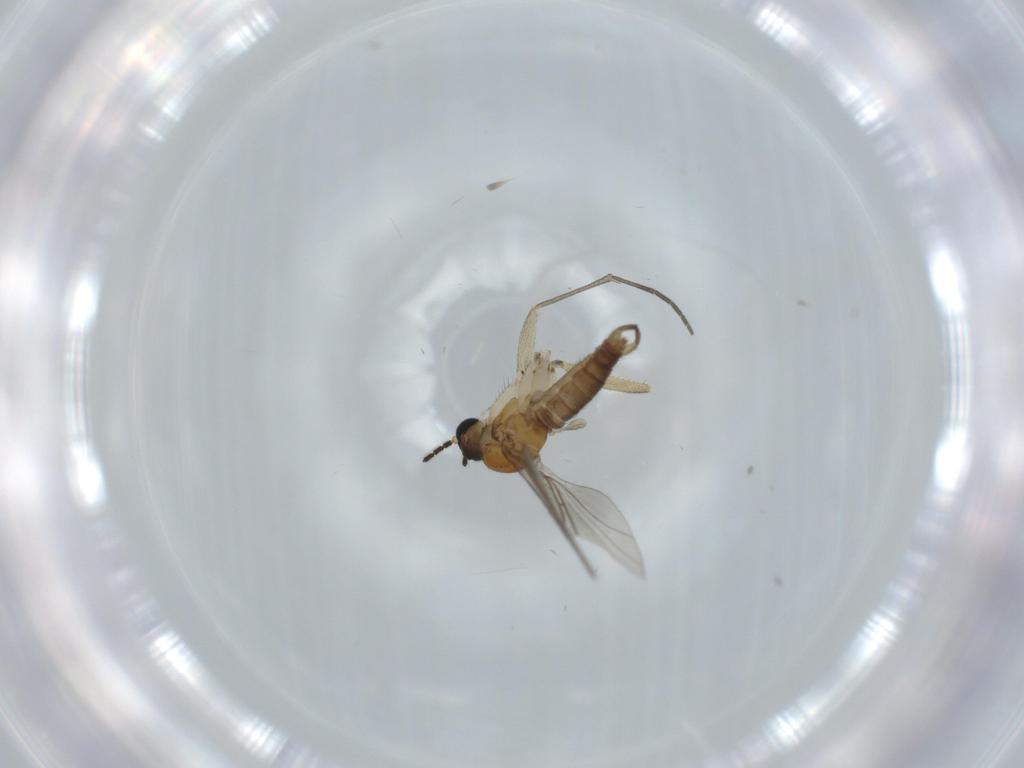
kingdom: Animalia
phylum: Arthropoda
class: Insecta
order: Diptera
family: Sciaridae
